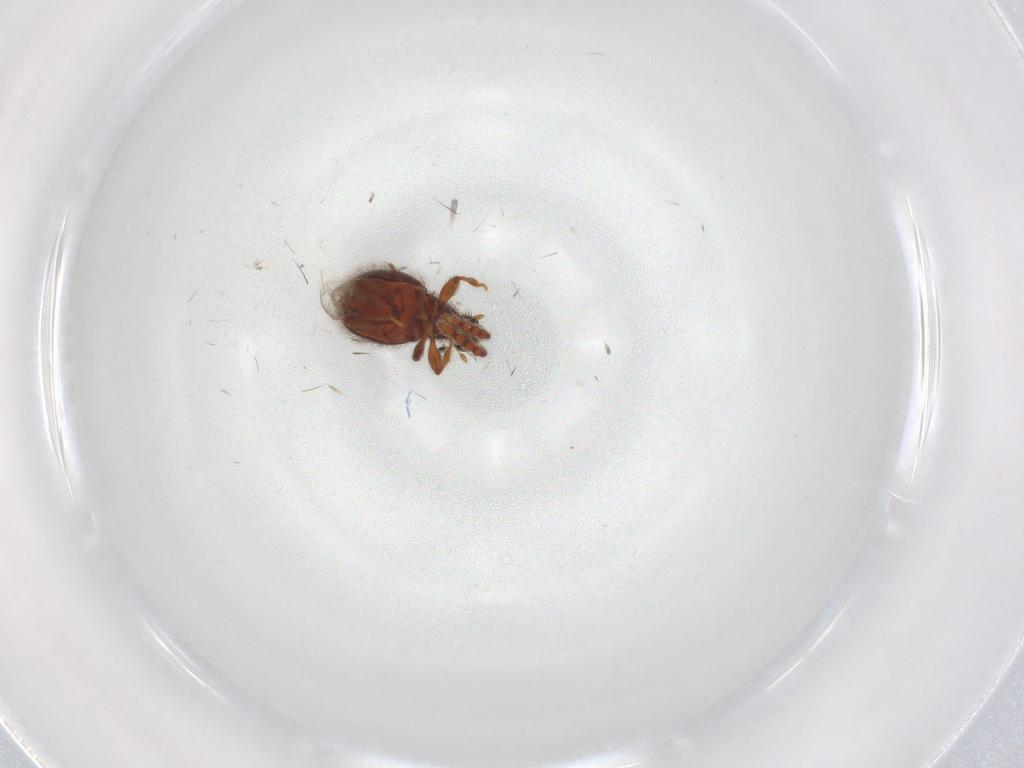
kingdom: Animalia
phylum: Arthropoda
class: Insecta
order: Coleoptera
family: Ptilodactylidae
